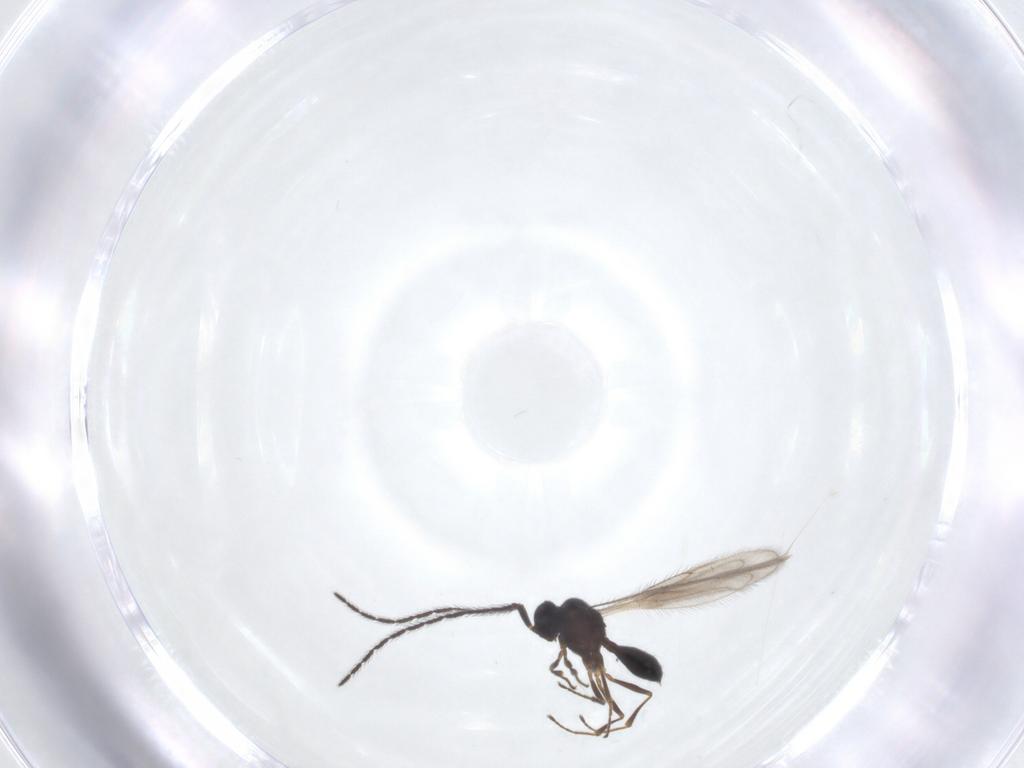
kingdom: Animalia
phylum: Arthropoda
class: Insecta
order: Hymenoptera
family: Scelionidae
